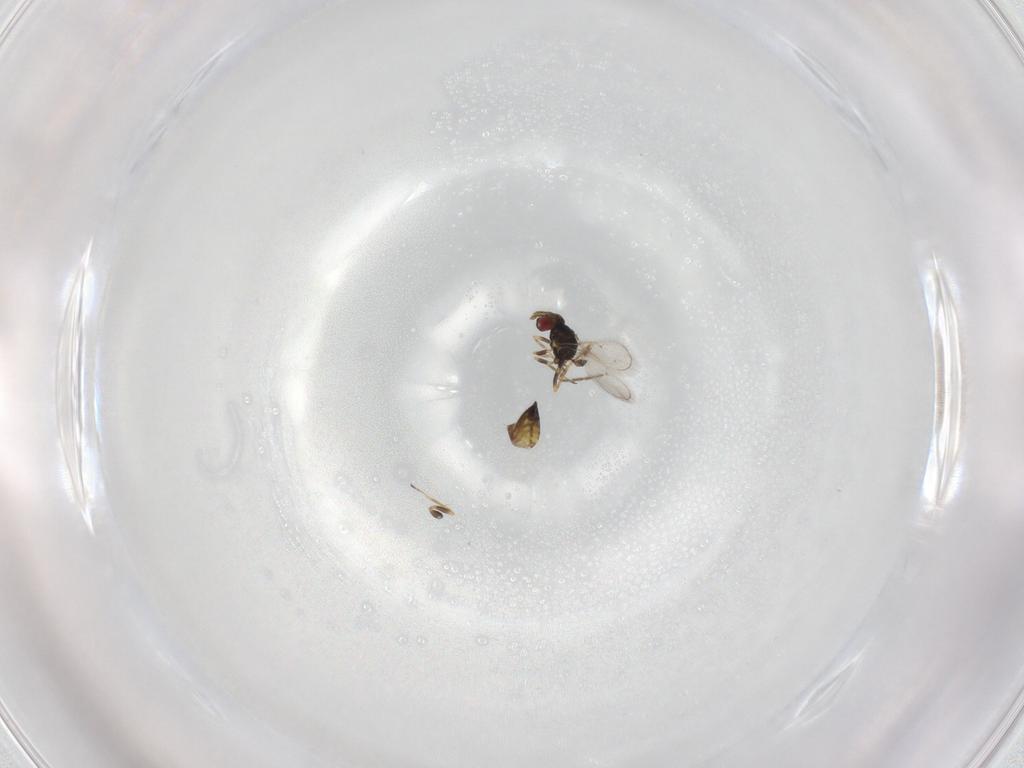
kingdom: Animalia
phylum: Arthropoda
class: Insecta
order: Hymenoptera
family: Eulophidae
